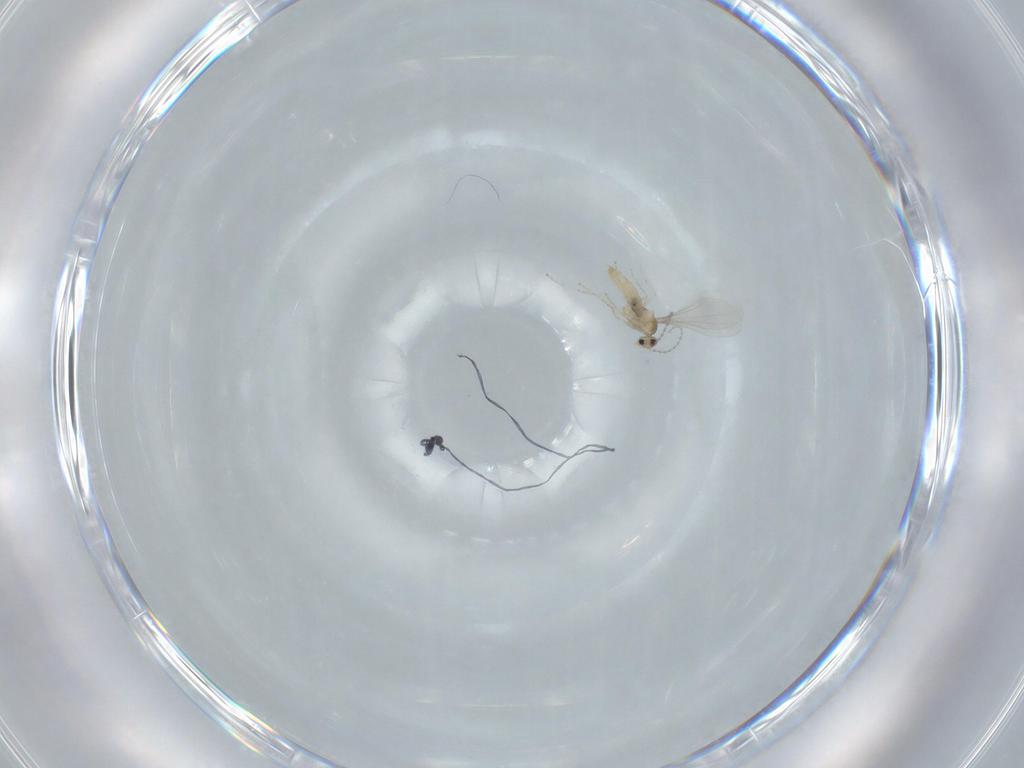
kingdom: Animalia
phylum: Arthropoda
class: Insecta
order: Diptera
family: Cecidomyiidae
